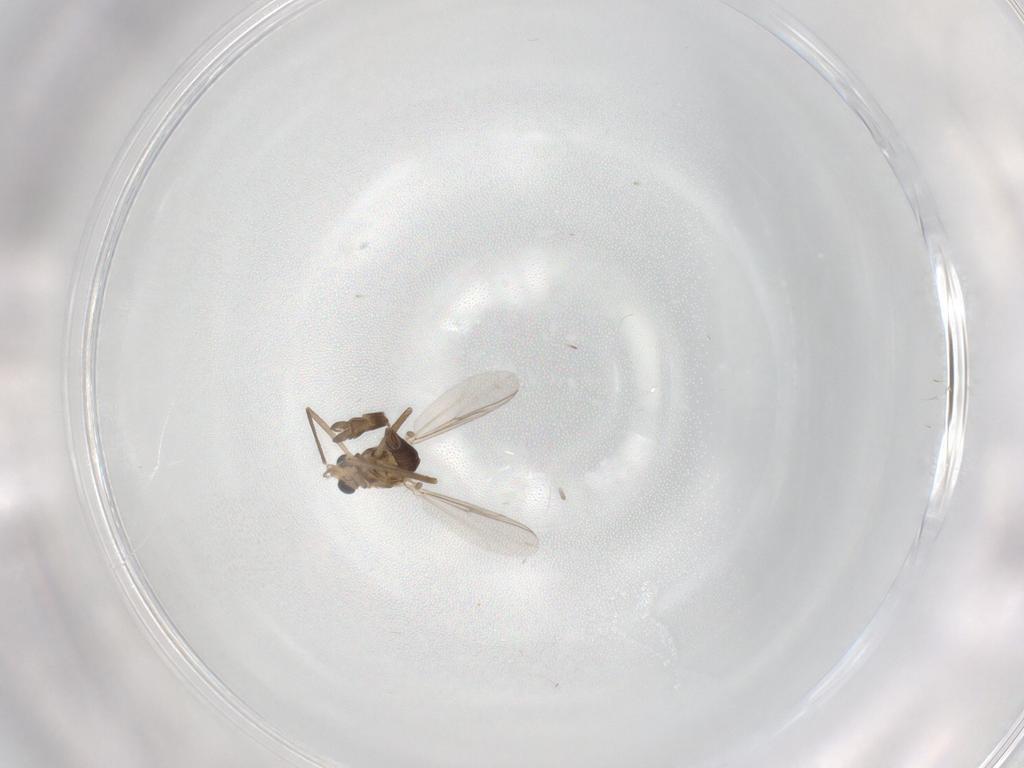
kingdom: Animalia
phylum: Arthropoda
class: Insecta
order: Diptera
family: Chironomidae
